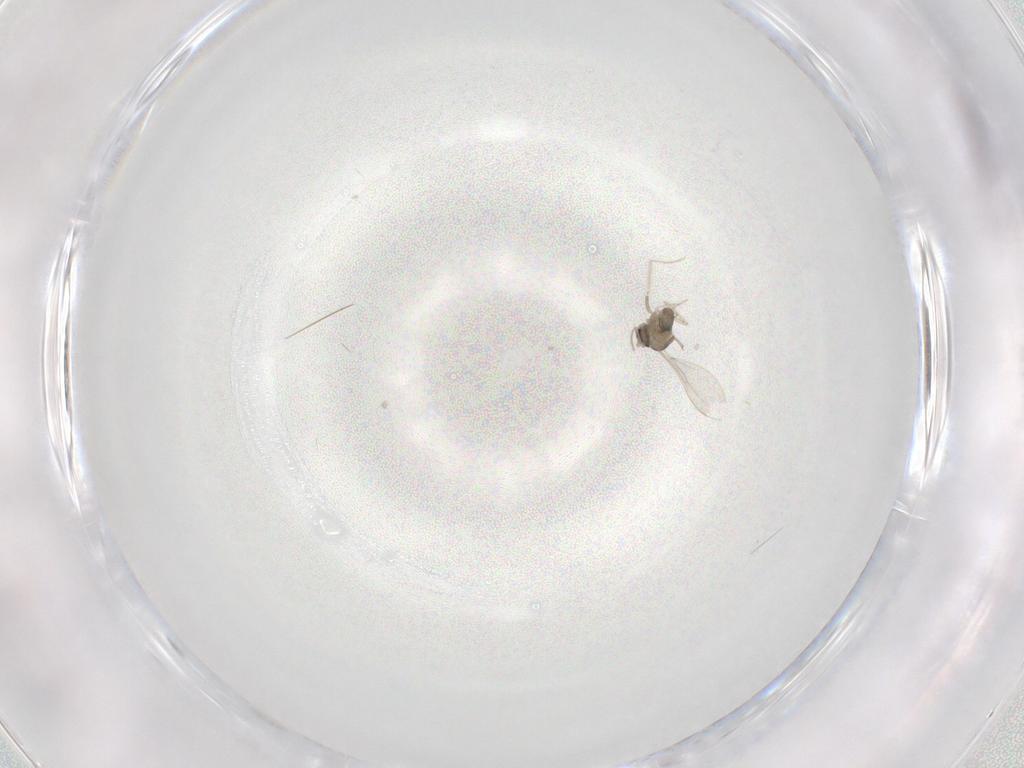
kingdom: Animalia
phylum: Arthropoda
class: Insecta
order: Diptera
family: Cecidomyiidae
